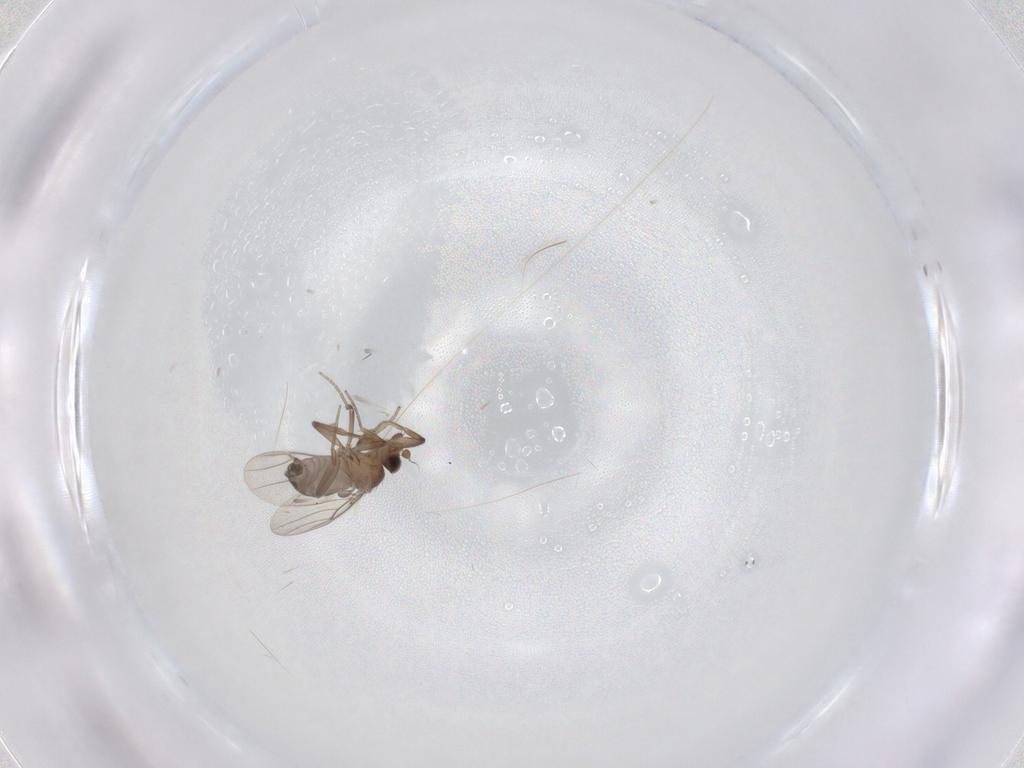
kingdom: Animalia
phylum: Arthropoda
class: Insecta
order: Diptera
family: Phoridae
